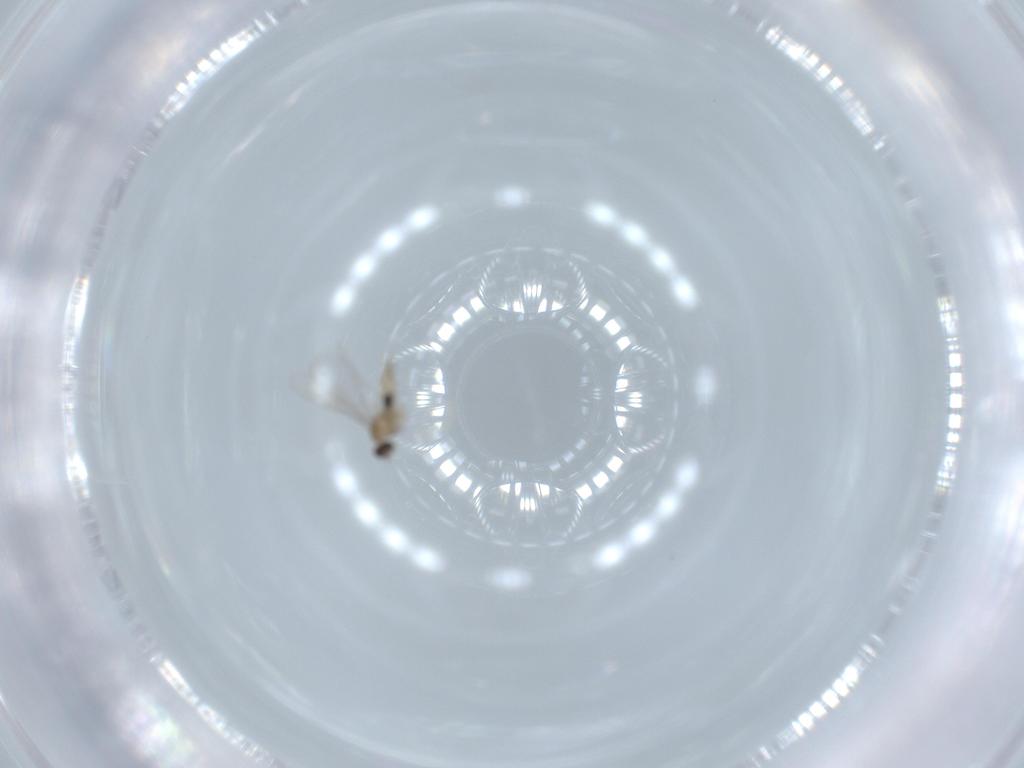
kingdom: Animalia
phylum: Arthropoda
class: Insecta
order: Diptera
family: Cecidomyiidae
